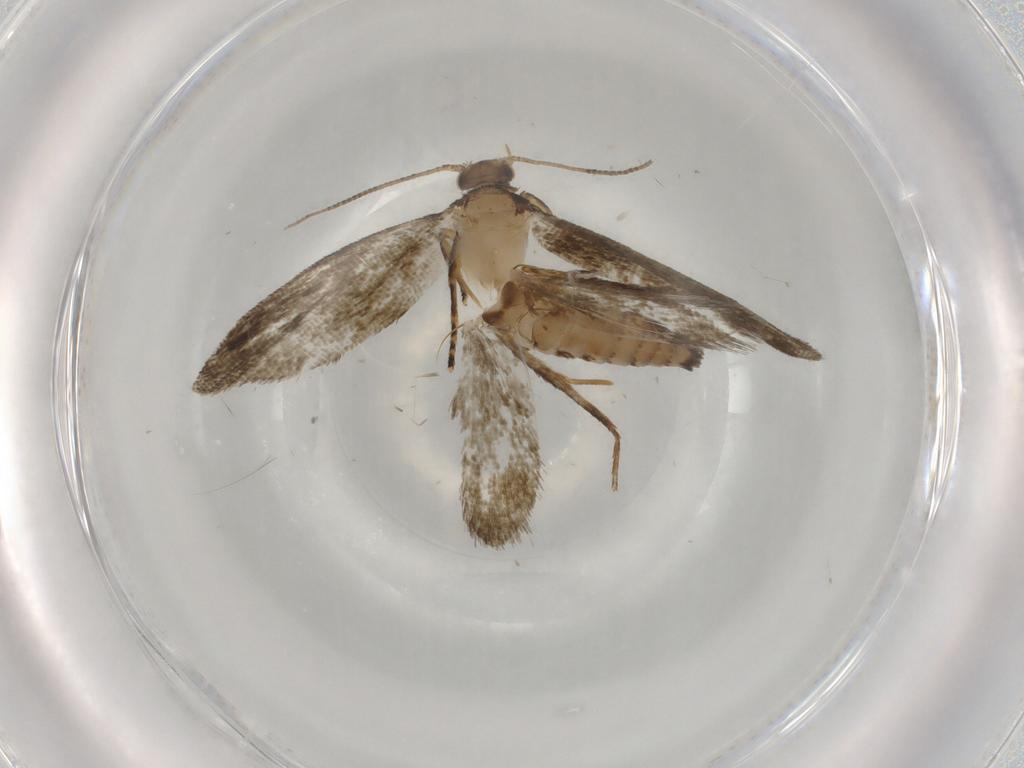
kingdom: Animalia
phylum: Arthropoda
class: Insecta
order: Lepidoptera
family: Crambidae
